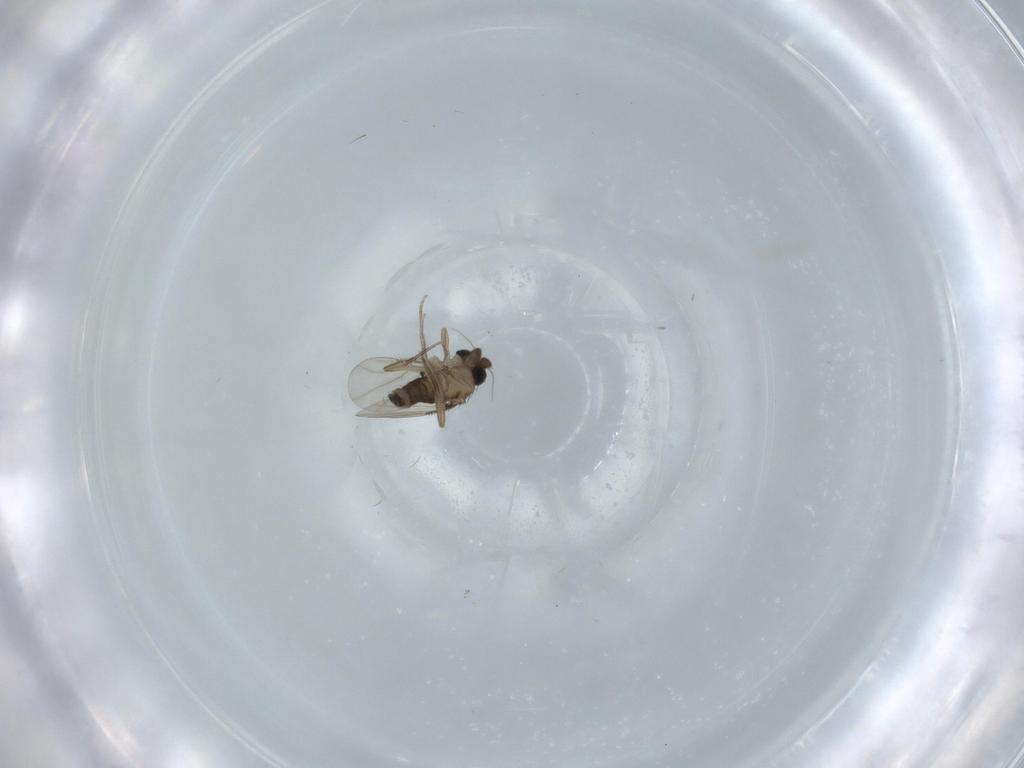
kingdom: Animalia
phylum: Arthropoda
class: Insecta
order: Diptera
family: Phoridae
